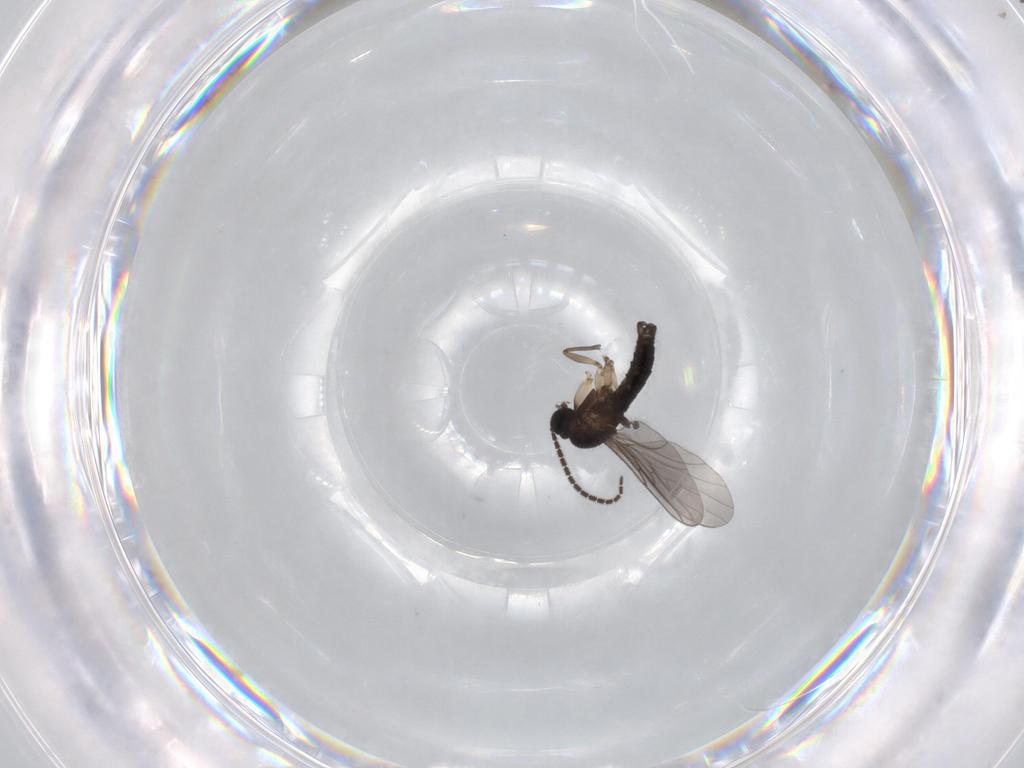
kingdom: Animalia
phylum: Arthropoda
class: Insecta
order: Diptera
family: Sciaridae
